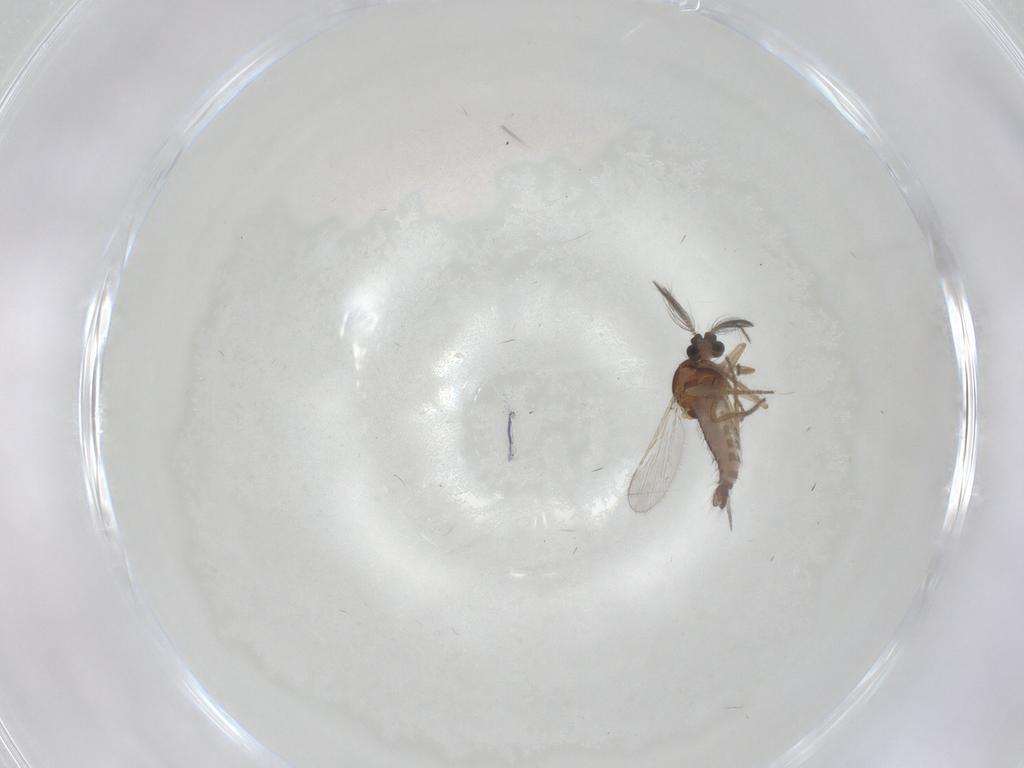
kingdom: Animalia
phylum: Arthropoda
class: Insecta
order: Diptera
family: Ceratopogonidae
